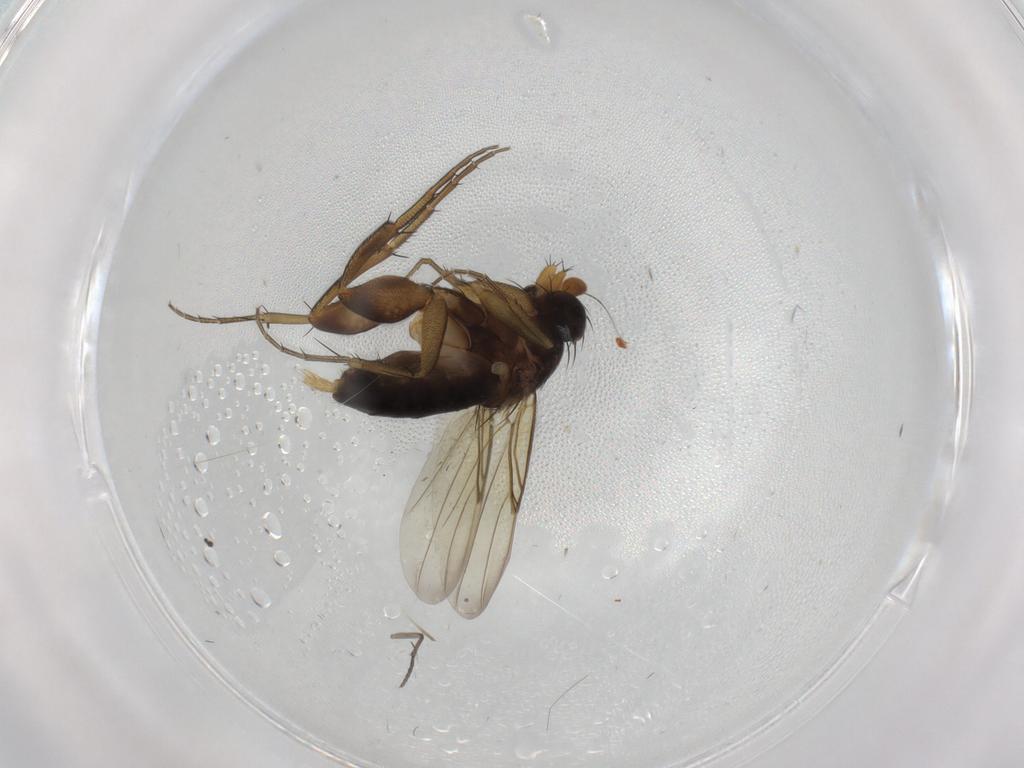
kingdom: Animalia
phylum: Arthropoda
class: Insecta
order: Diptera
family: Phoridae
